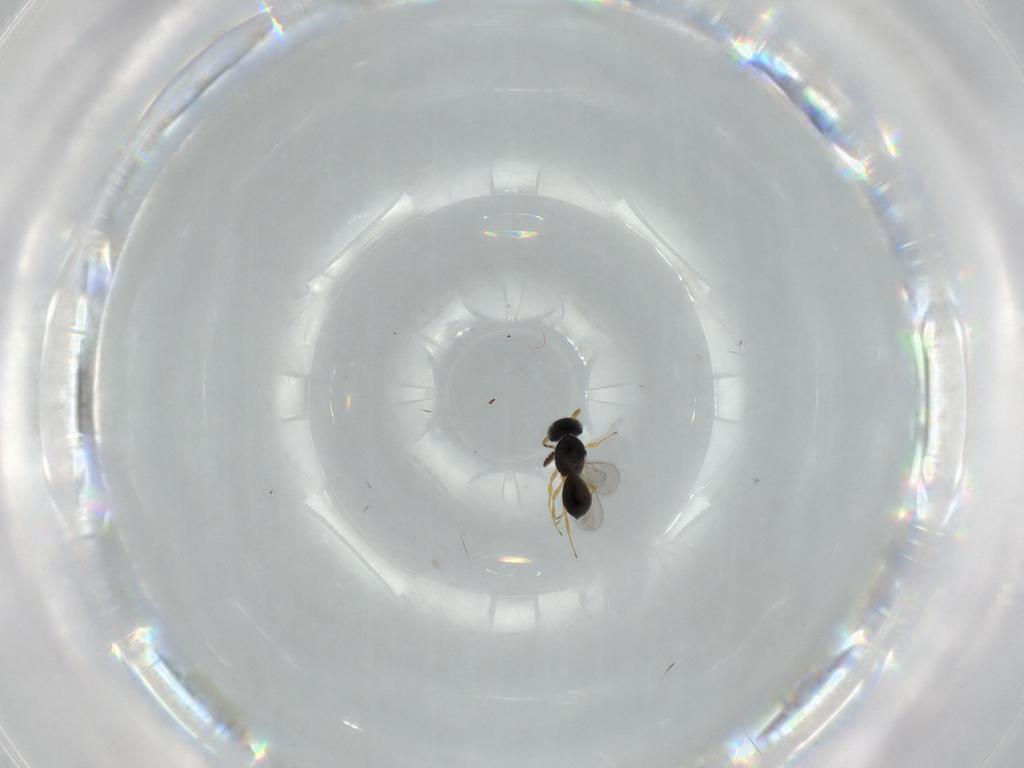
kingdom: Animalia
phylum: Arthropoda
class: Insecta
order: Hymenoptera
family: Scelionidae
